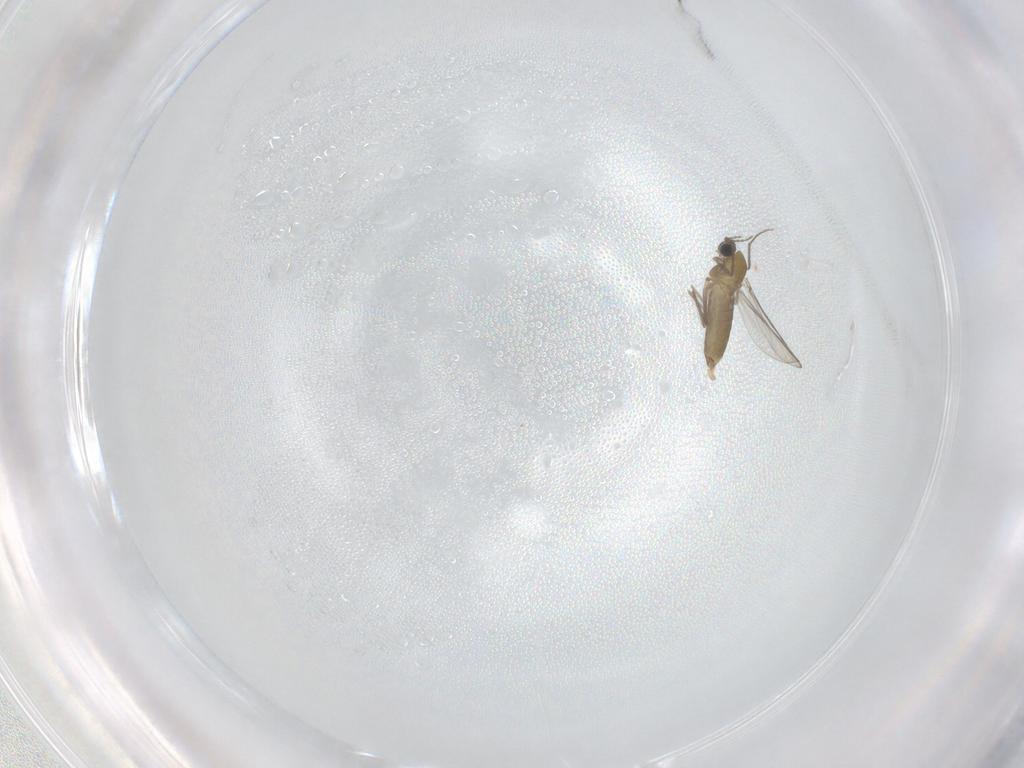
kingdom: Animalia
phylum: Arthropoda
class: Insecta
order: Diptera
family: Chironomidae
